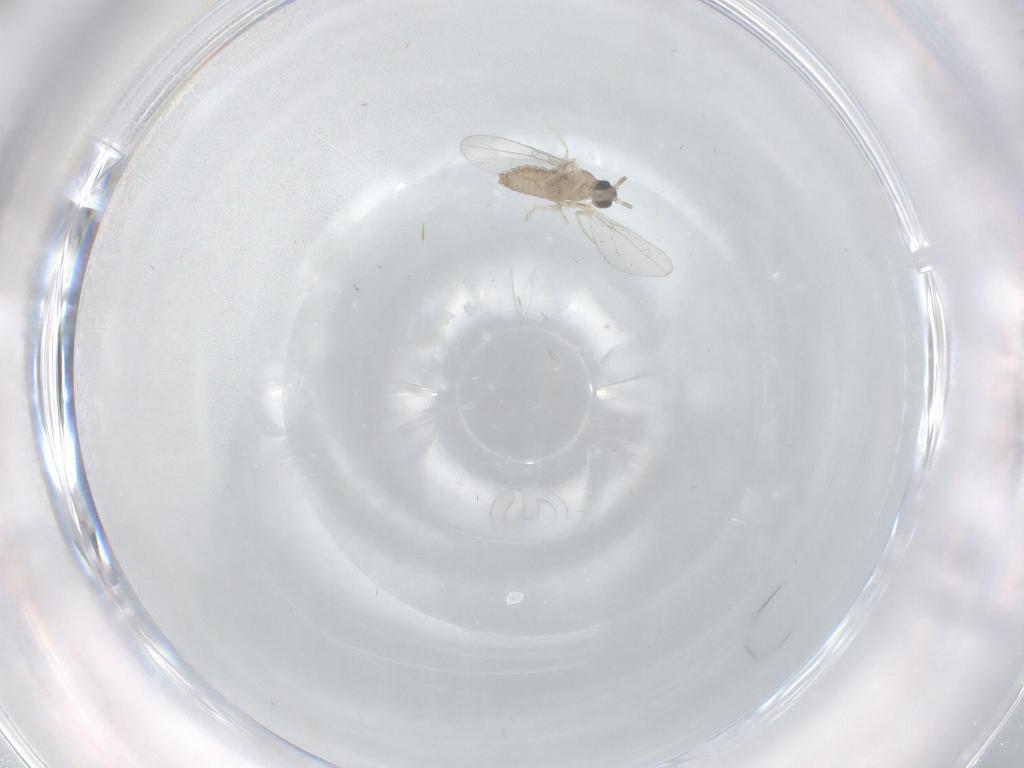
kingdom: Animalia
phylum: Arthropoda
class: Insecta
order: Diptera
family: Cecidomyiidae
